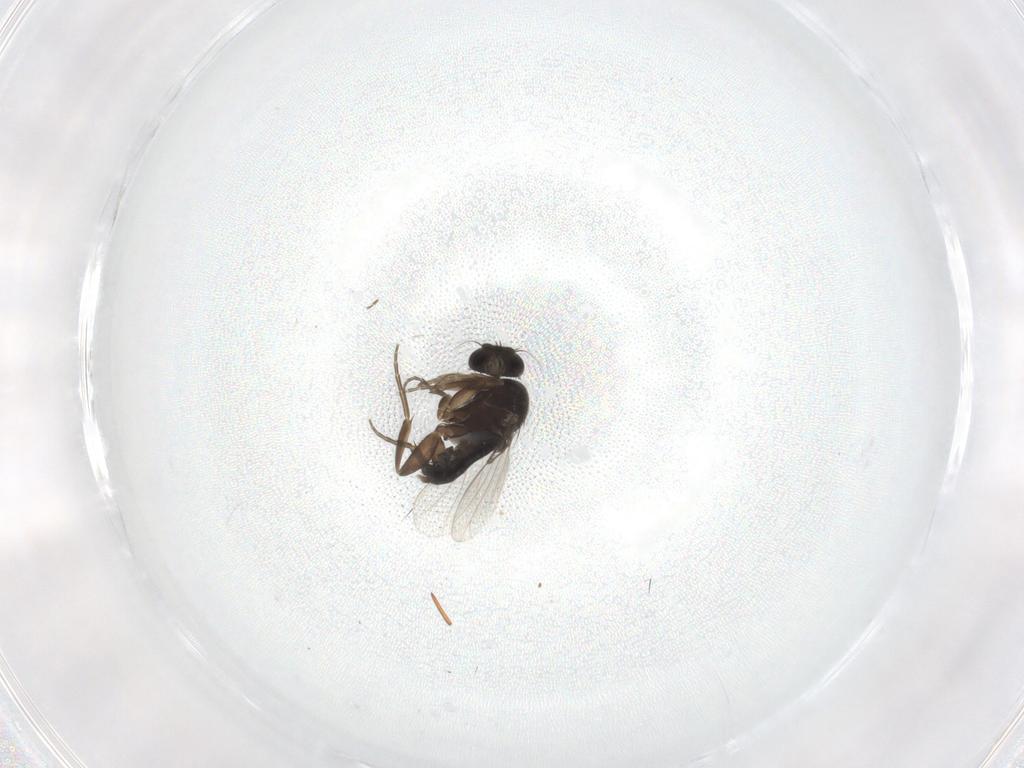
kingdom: Animalia
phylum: Arthropoda
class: Insecta
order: Diptera
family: Phoridae
